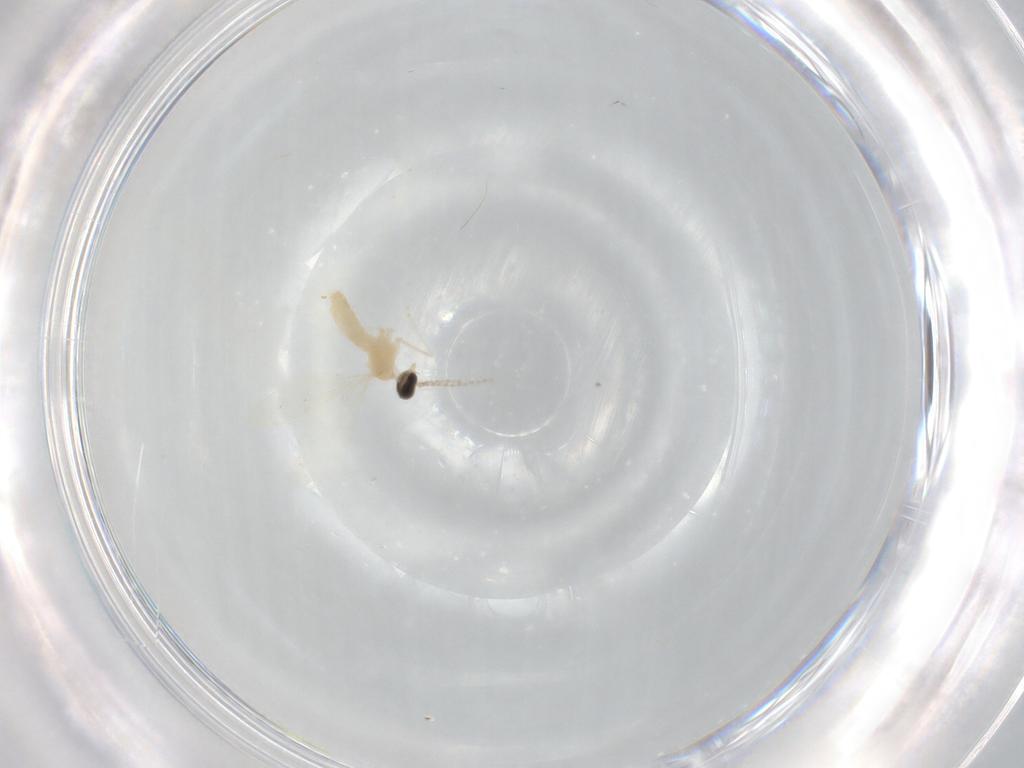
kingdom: Animalia
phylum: Arthropoda
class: Insecta
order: Diptera
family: Cecidomyiidae
